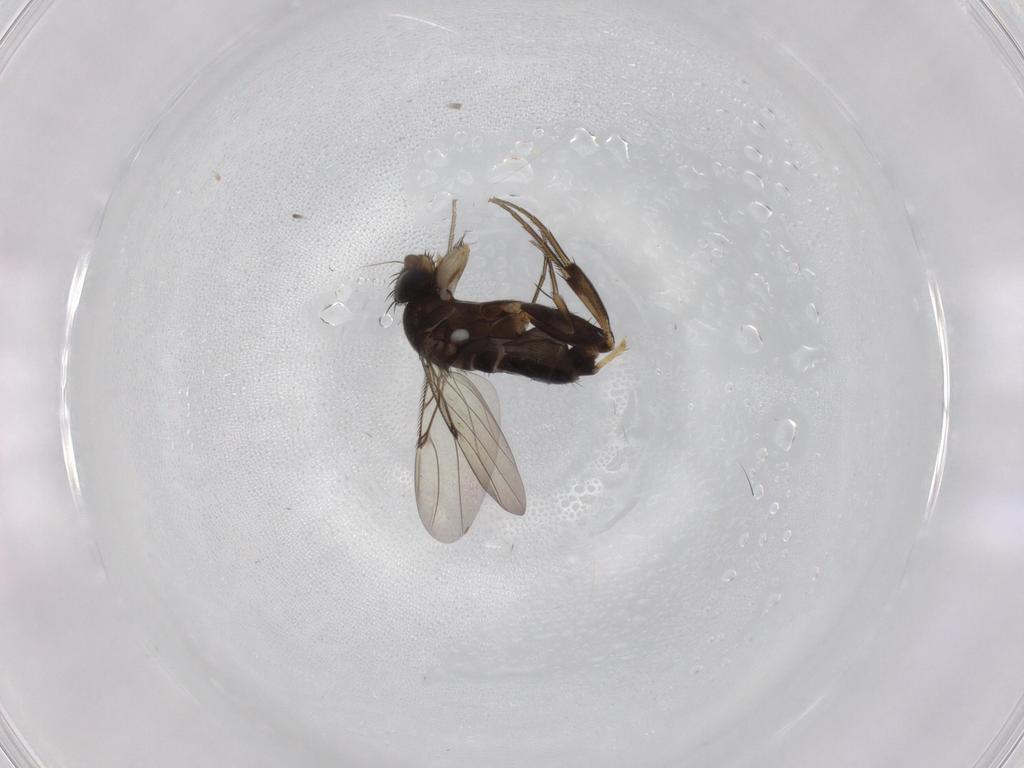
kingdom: Animalia
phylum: Arthropoda
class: Insecta
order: Diptera
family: Phoridae
